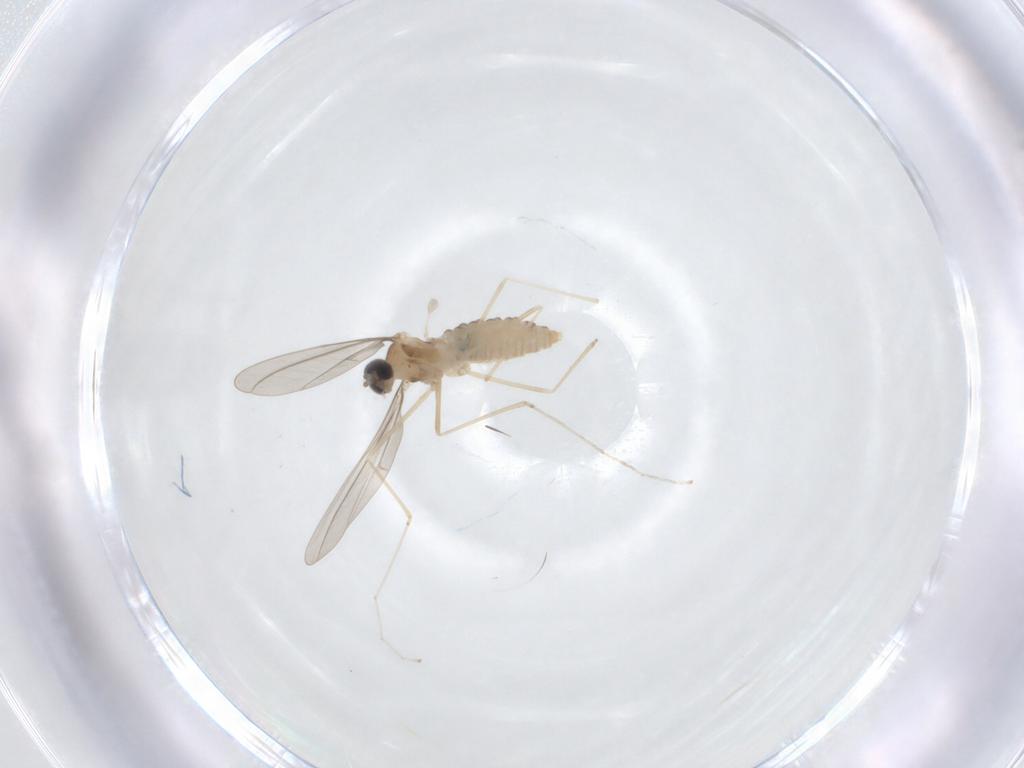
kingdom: Animalia
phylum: Arthropoda
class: Insecta
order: Diptera
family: Cecidomyiidae
